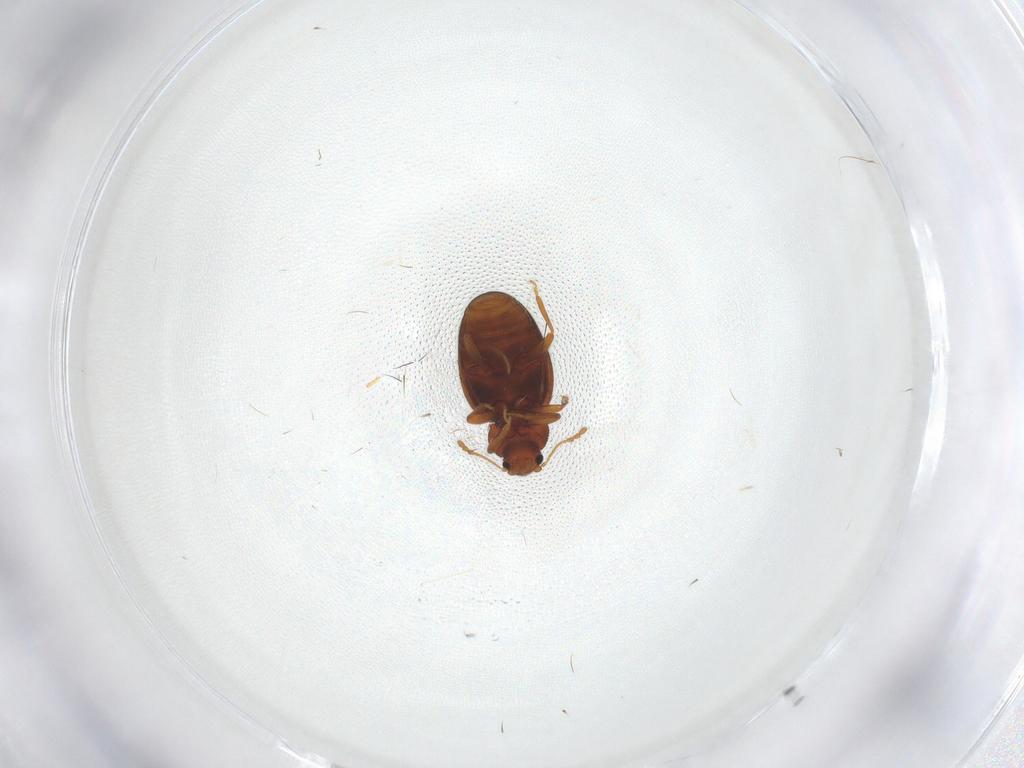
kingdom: Animalia
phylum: Arthropoda
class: Insecta
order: Coleoptera
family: Latridiidae
